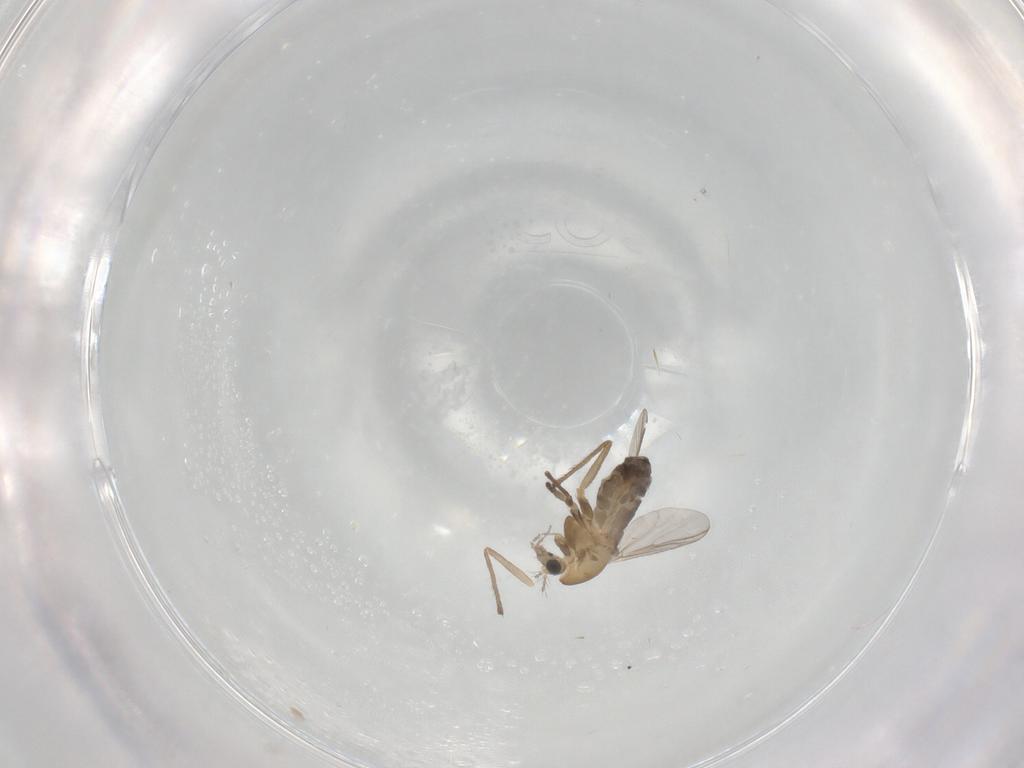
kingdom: Animalia
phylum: Arthropoda
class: Insecta
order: Diptera
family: Chironomidae
